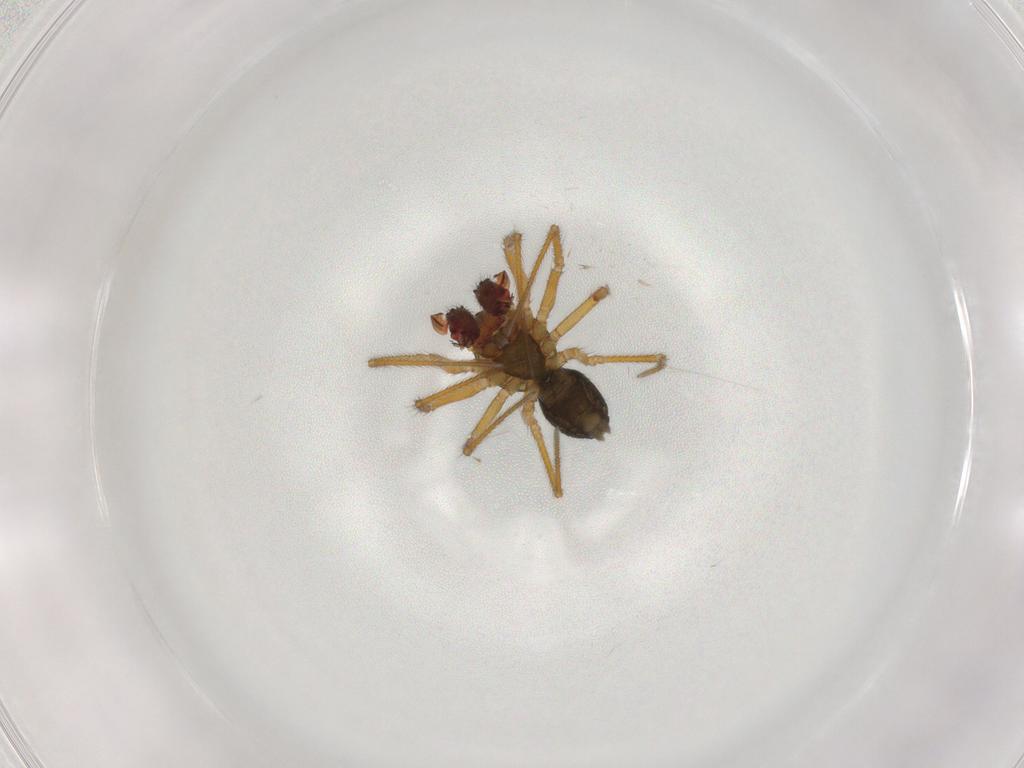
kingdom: Animalia
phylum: Arthropoda
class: Arachnida
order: Araneae
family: Linyphiidae
